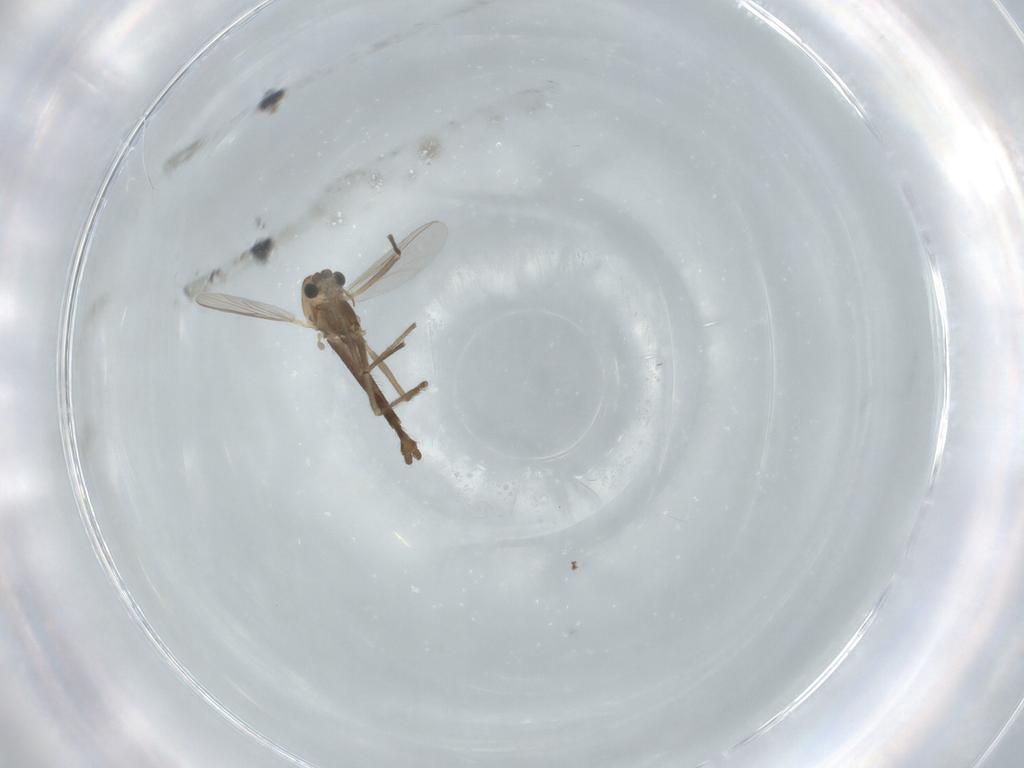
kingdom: Animalia
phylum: Arthropoda
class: Insecta
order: Diptera
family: Chironomidae
